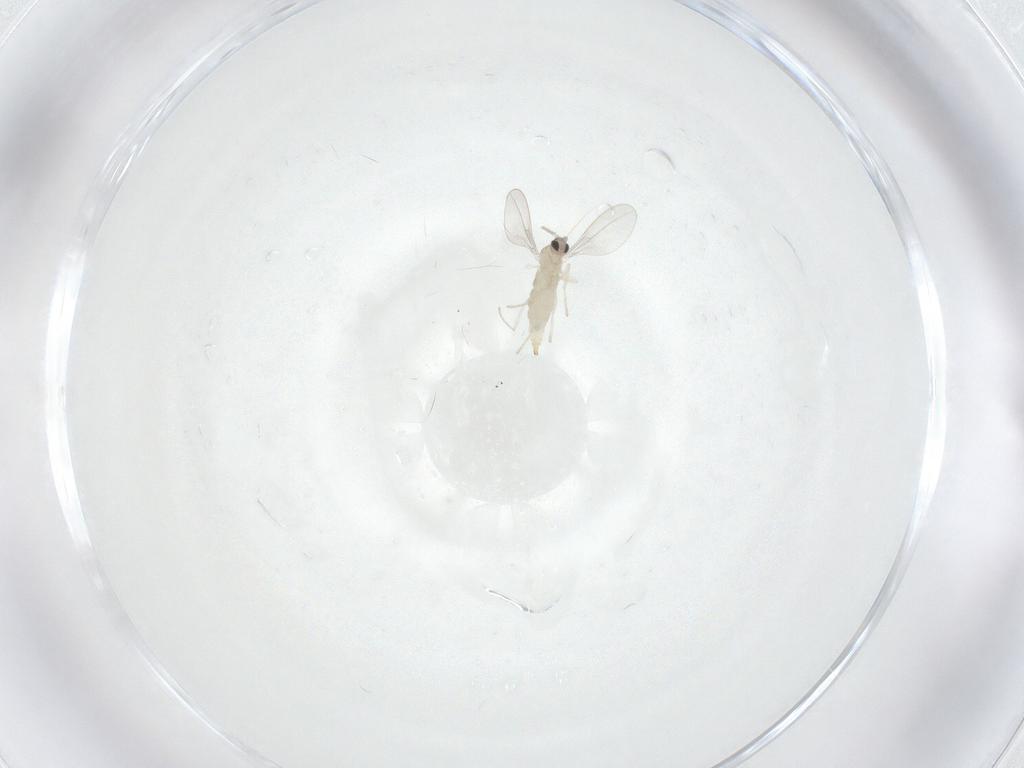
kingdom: Animalia
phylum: Arthropoda
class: Insecta
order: Diptera
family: Cecidomyiidae
